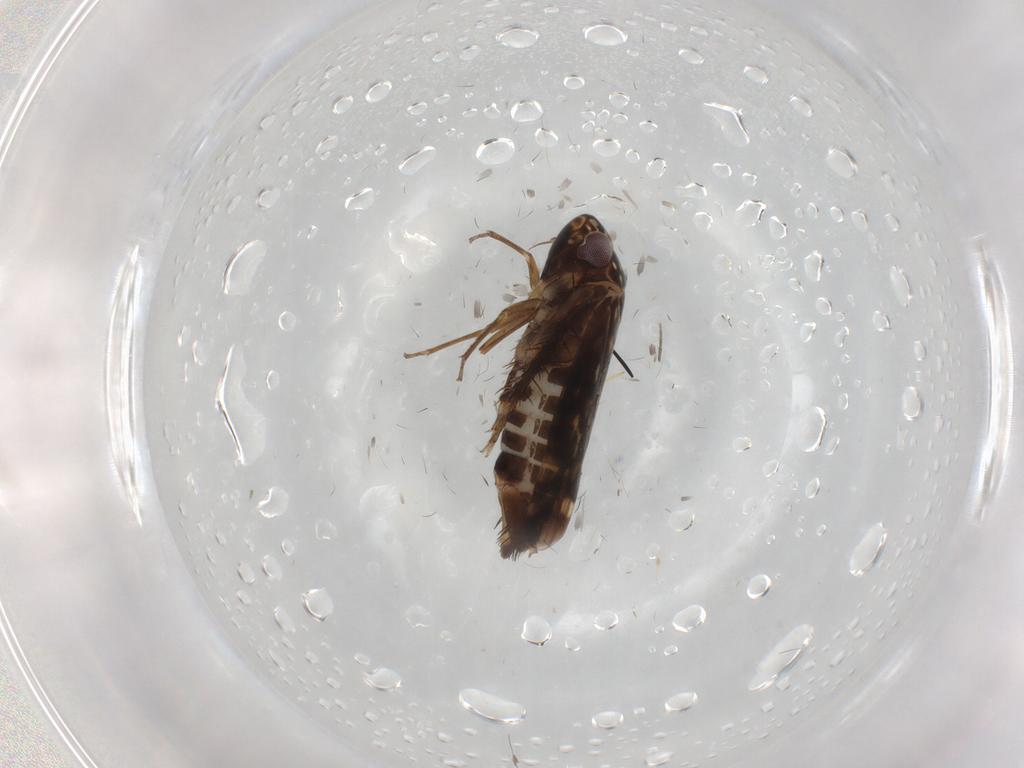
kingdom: Animalia
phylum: Arthropoda
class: Insecta
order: Hemiptera
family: Cicadellidae
